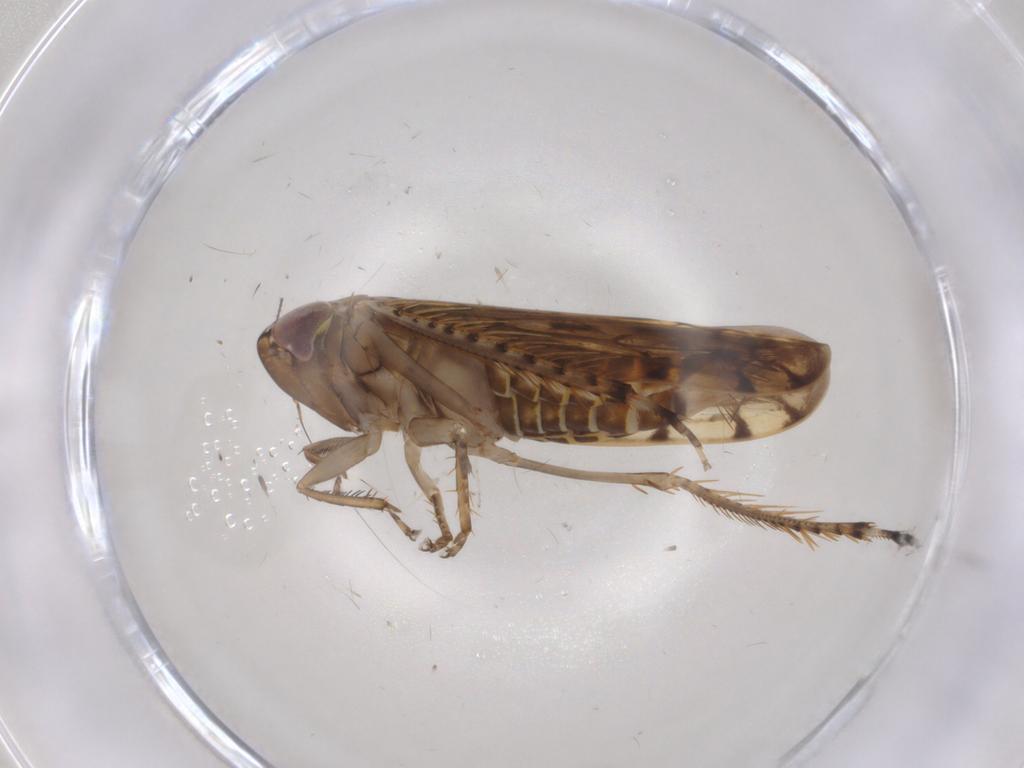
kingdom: Animalia
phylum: Arthropoda
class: Insecta
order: Hemiptera
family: Cicadellidae
